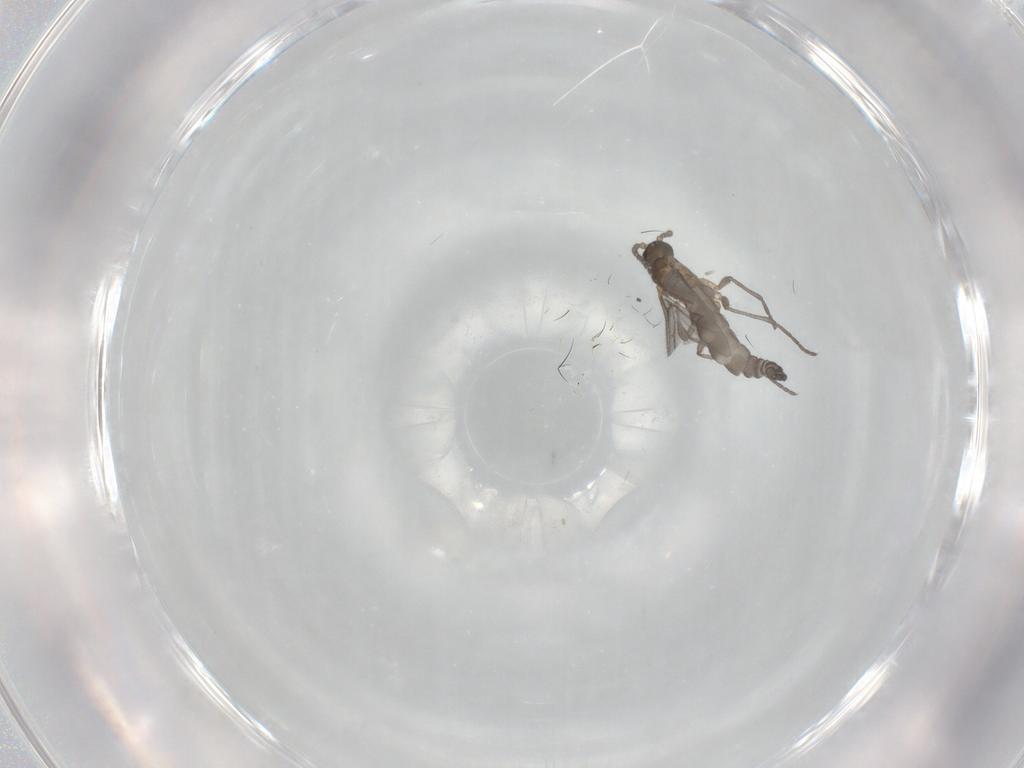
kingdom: Animalia
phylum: Arthropoda
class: Insecta
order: Diptera
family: Sciaridae
